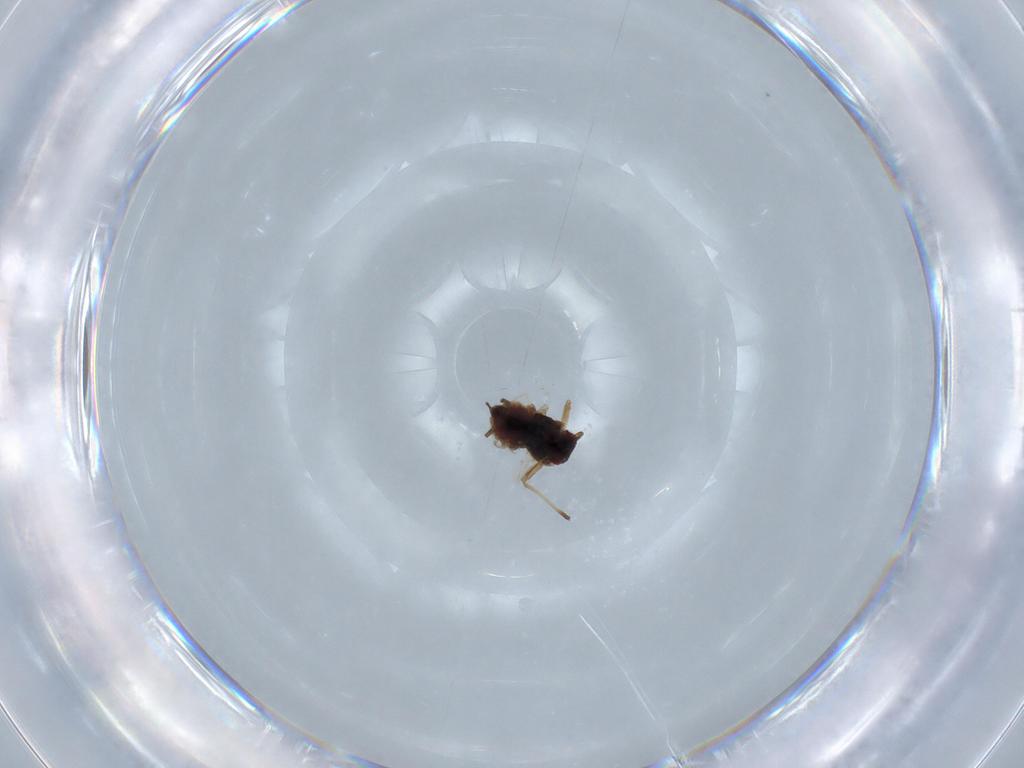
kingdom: Animalia
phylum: Arthropoda
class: Insecta
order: Hemiptera
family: Aphididae
